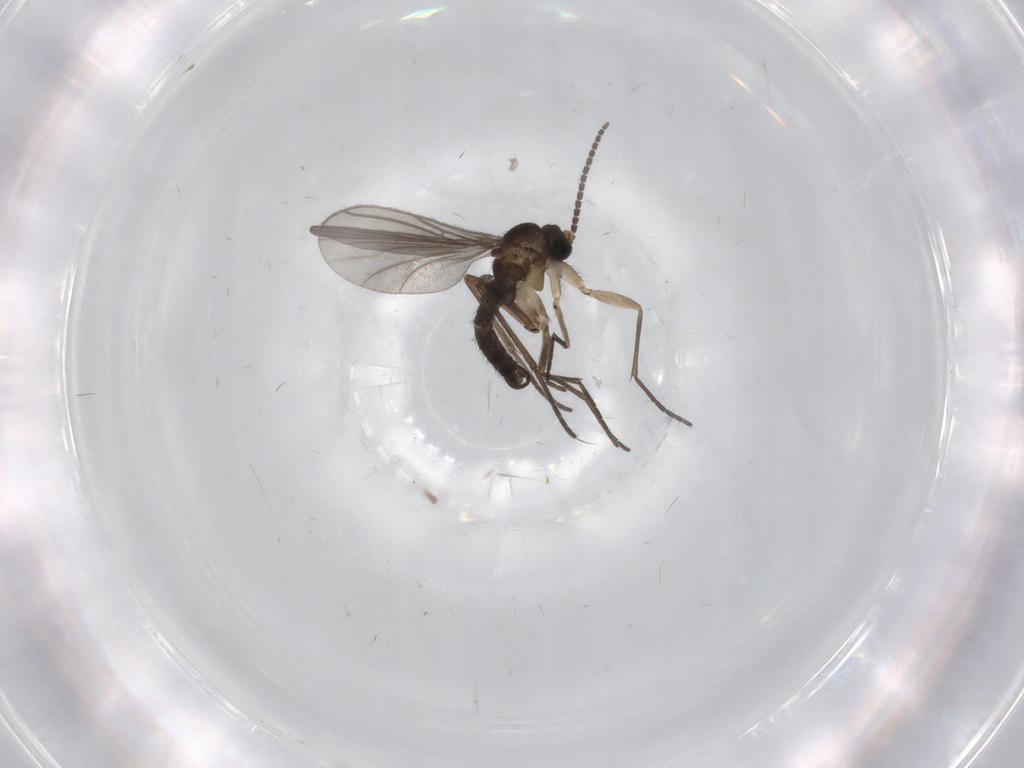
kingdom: Animalia
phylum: Arthropoda
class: Insecta
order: Diptera
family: Sciaridae
